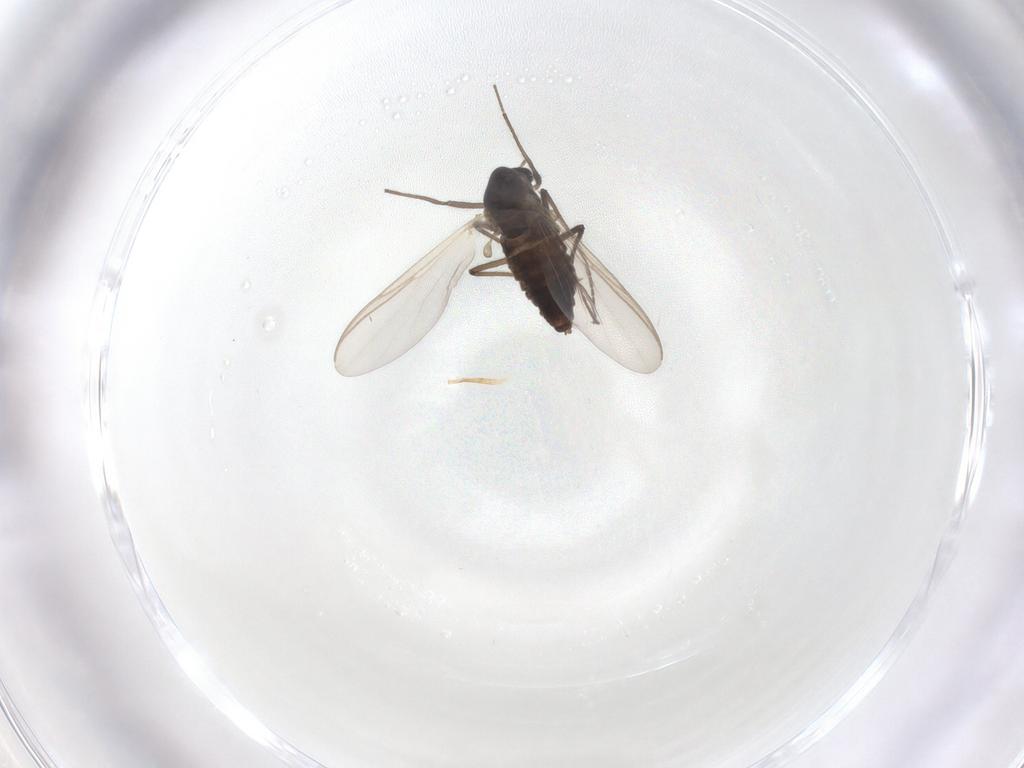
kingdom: Animalia
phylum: Arthropoda
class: Insecta
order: Diptera
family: Chironomidae
